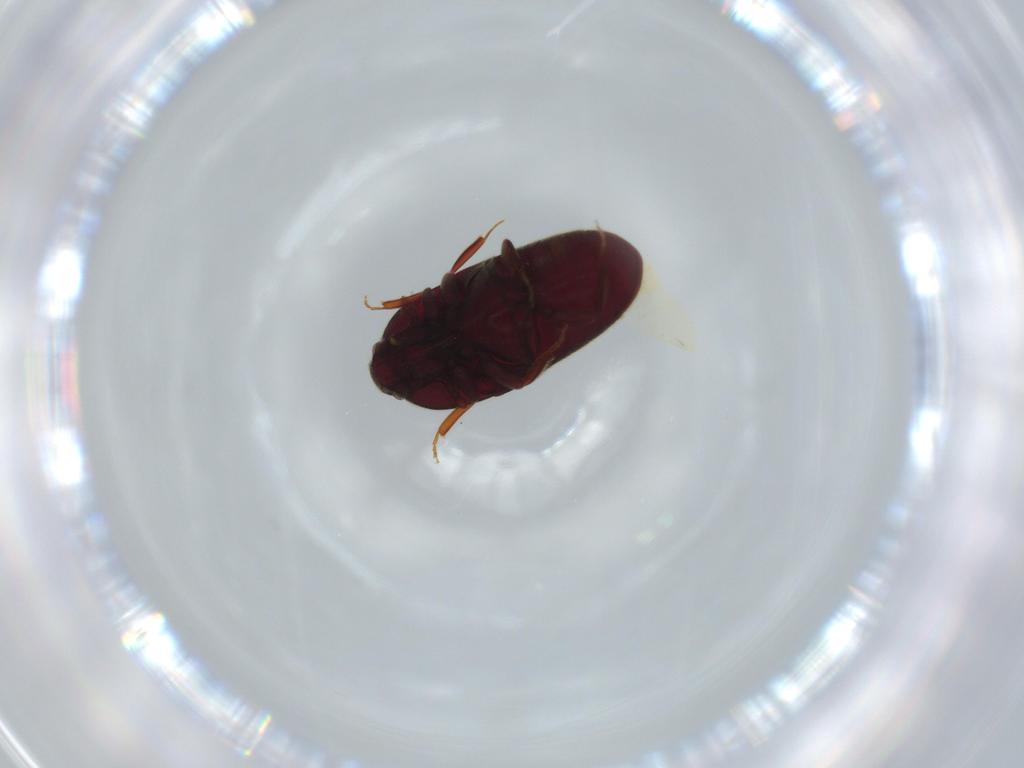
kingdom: Animalia
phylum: Arthropoda
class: Insecta
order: Coleoptera
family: Throscidae
